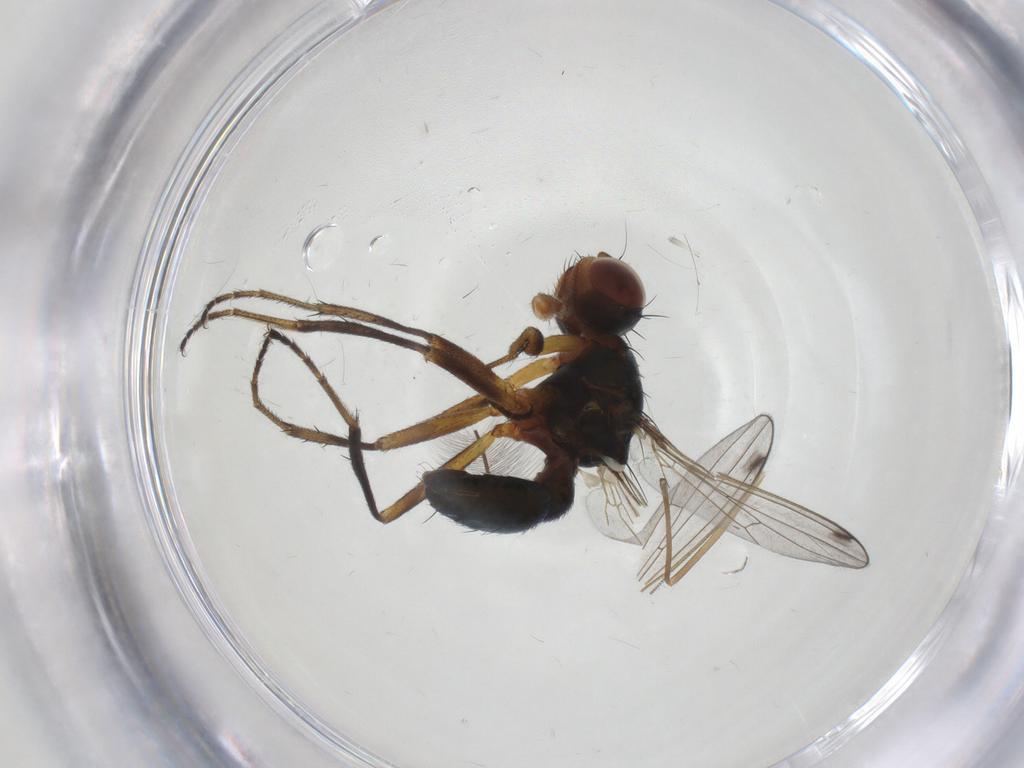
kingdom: Animalia
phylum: Arthropoda
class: Insecta
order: Diptera
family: Sepsidae
